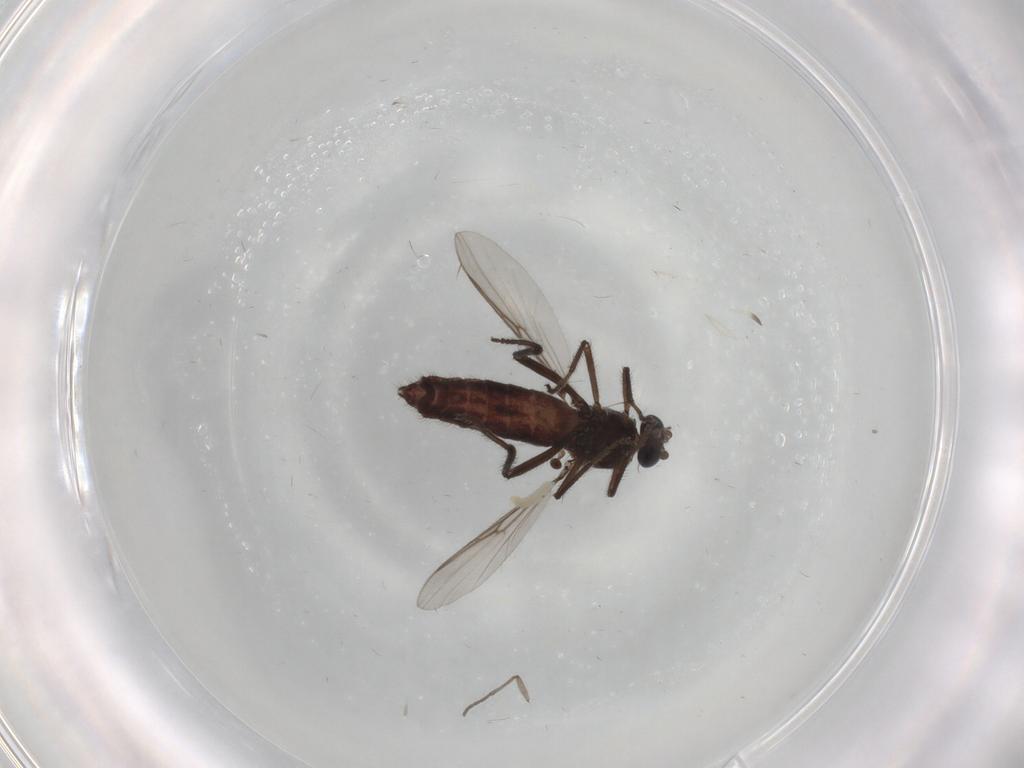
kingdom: Animalia
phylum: Arthropoda
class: Insecta
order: Diptera
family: Ceratopogonidae
